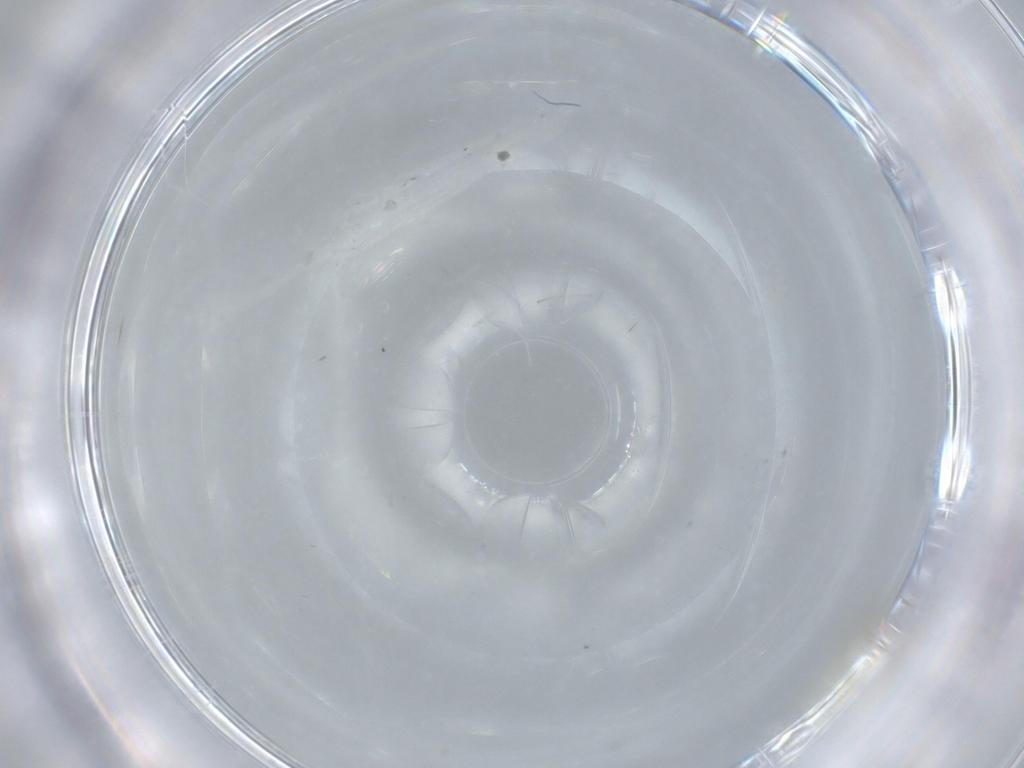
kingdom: Animalia
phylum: Arthropoda
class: Insecta
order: Diptera
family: Cecidomyiidae
